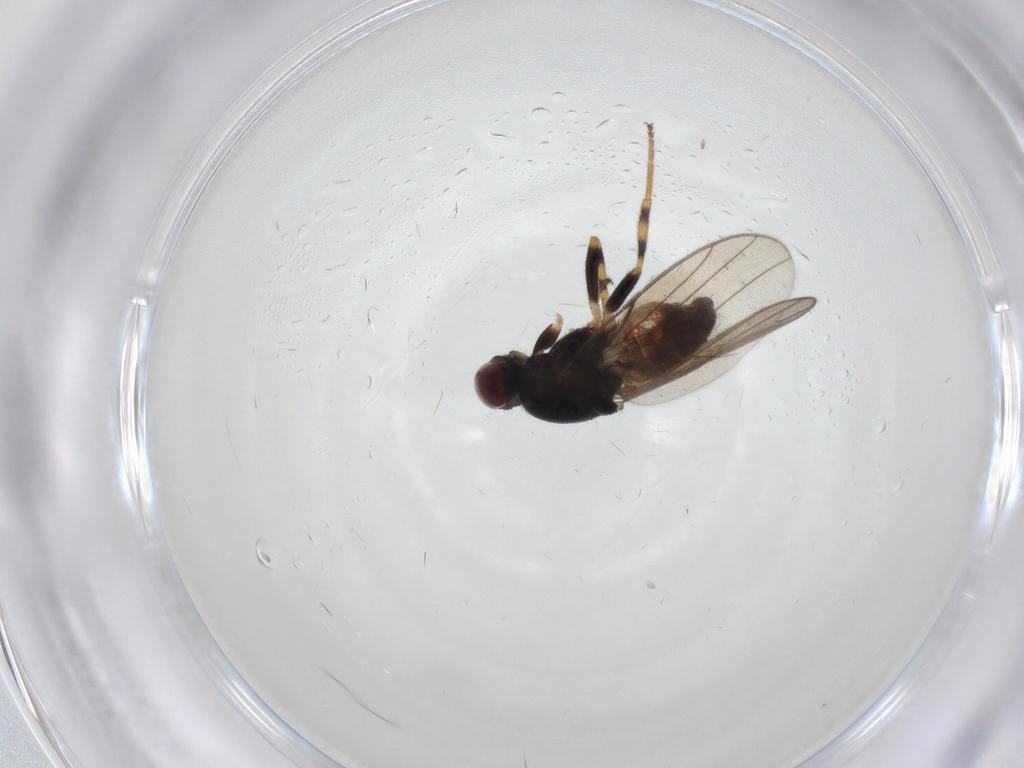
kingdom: Animalia
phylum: Arthropoda
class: Insecta
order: Diptera
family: Chloropidae
